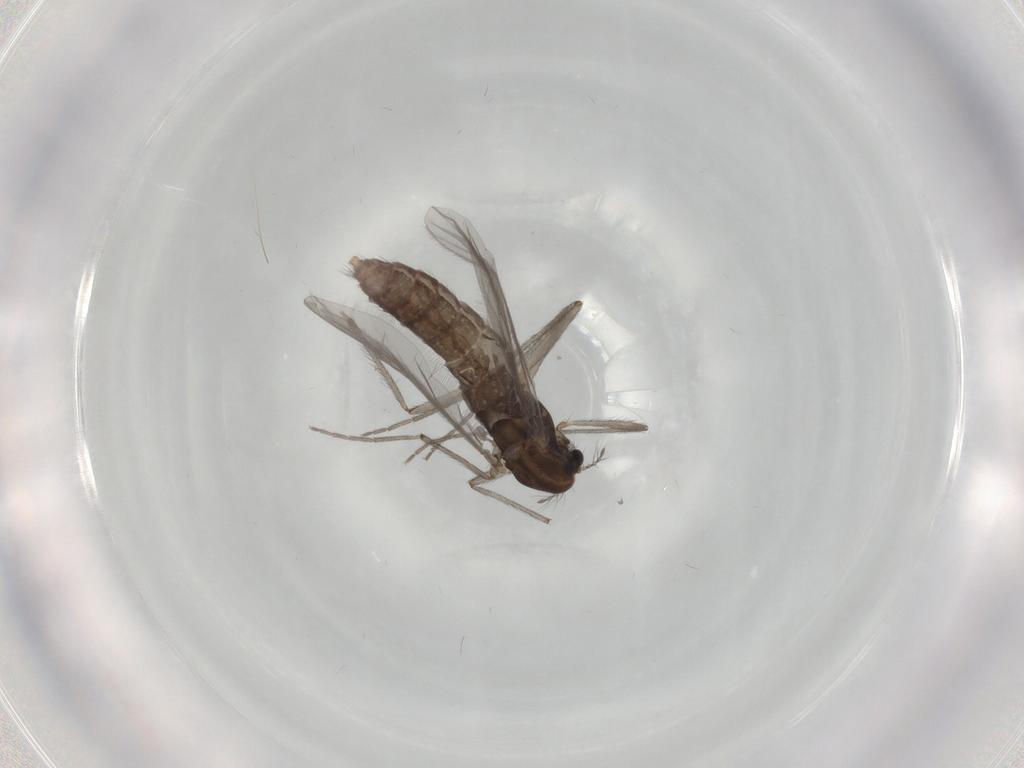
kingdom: Animalia
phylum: Arthropoda
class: Insecta
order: Diptera
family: Chironomidae
